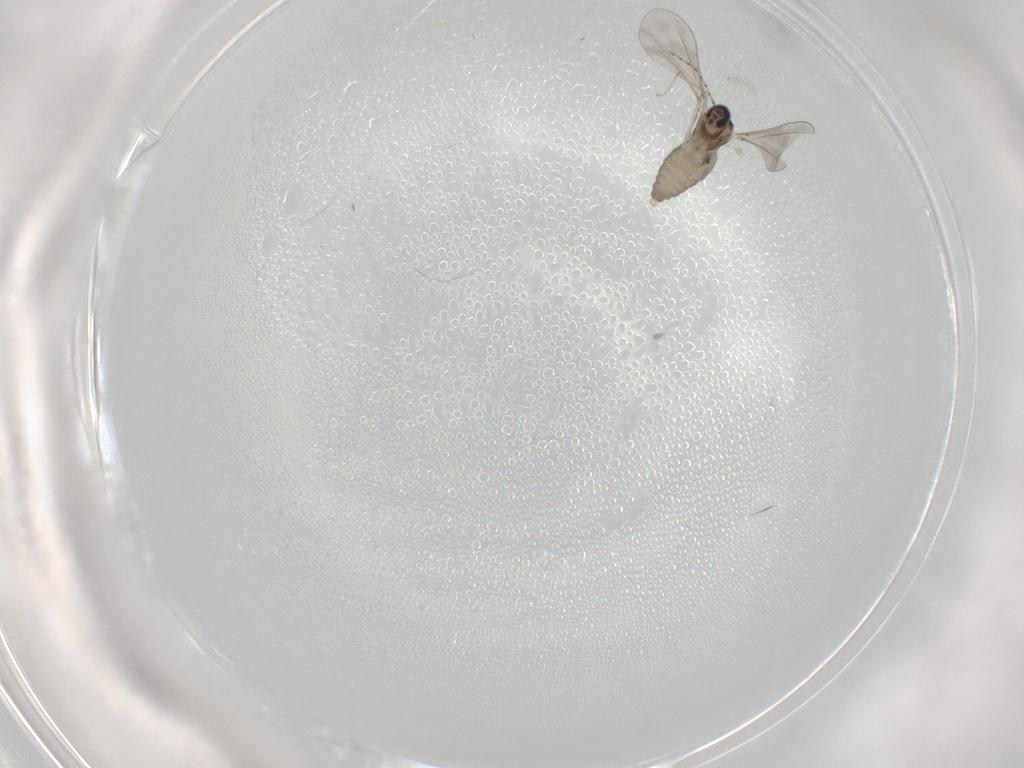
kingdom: Animalia
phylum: Arthropoda
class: Insecta
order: Diptera
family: Cecidomyiidae
